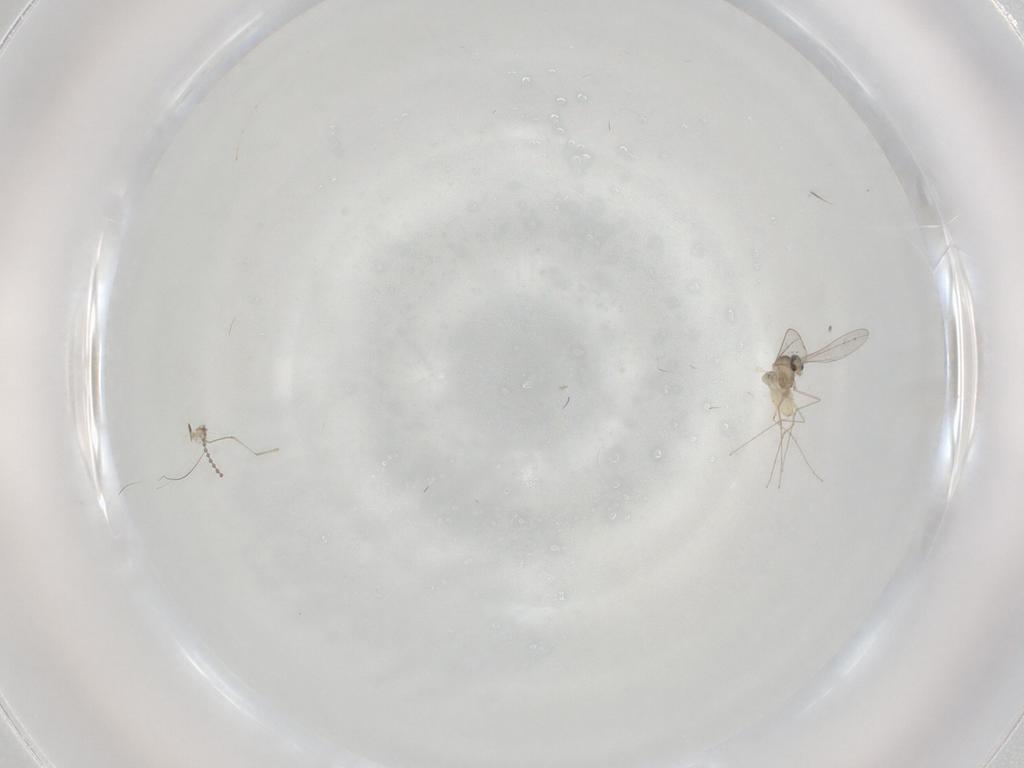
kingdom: Animalia
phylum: Arthropoda
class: Insecta
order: Diptera
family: Cecidomyiidae
